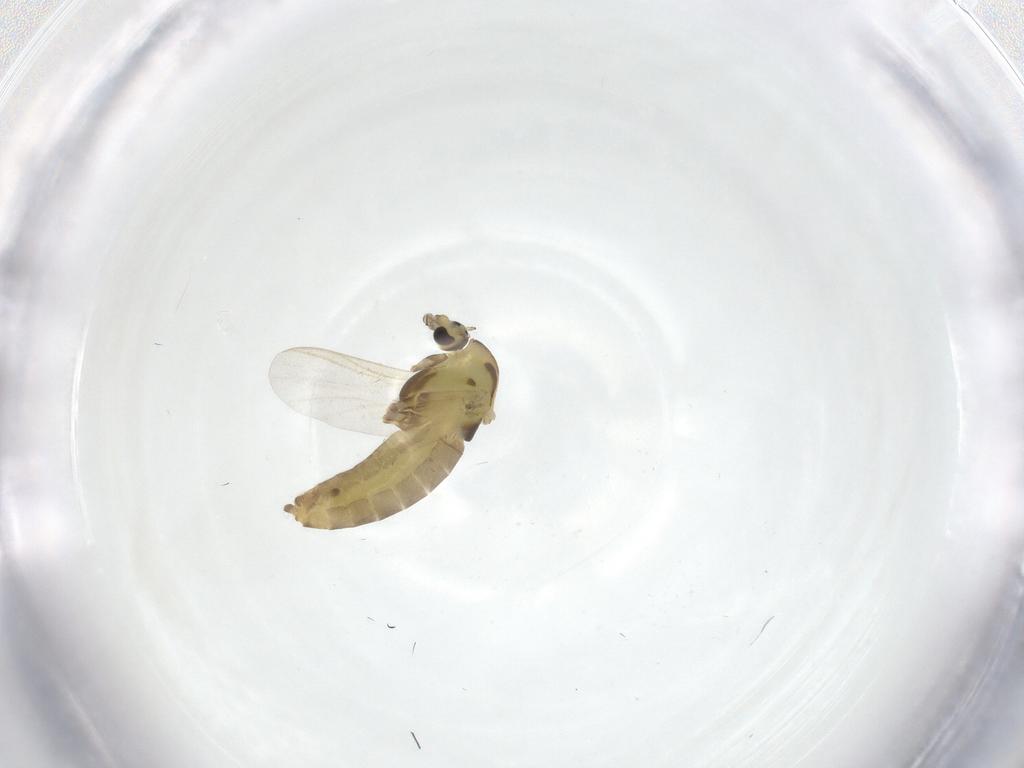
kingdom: Animalia
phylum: Arthropoda
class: Insecta
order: Diptera
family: Chironomidae
